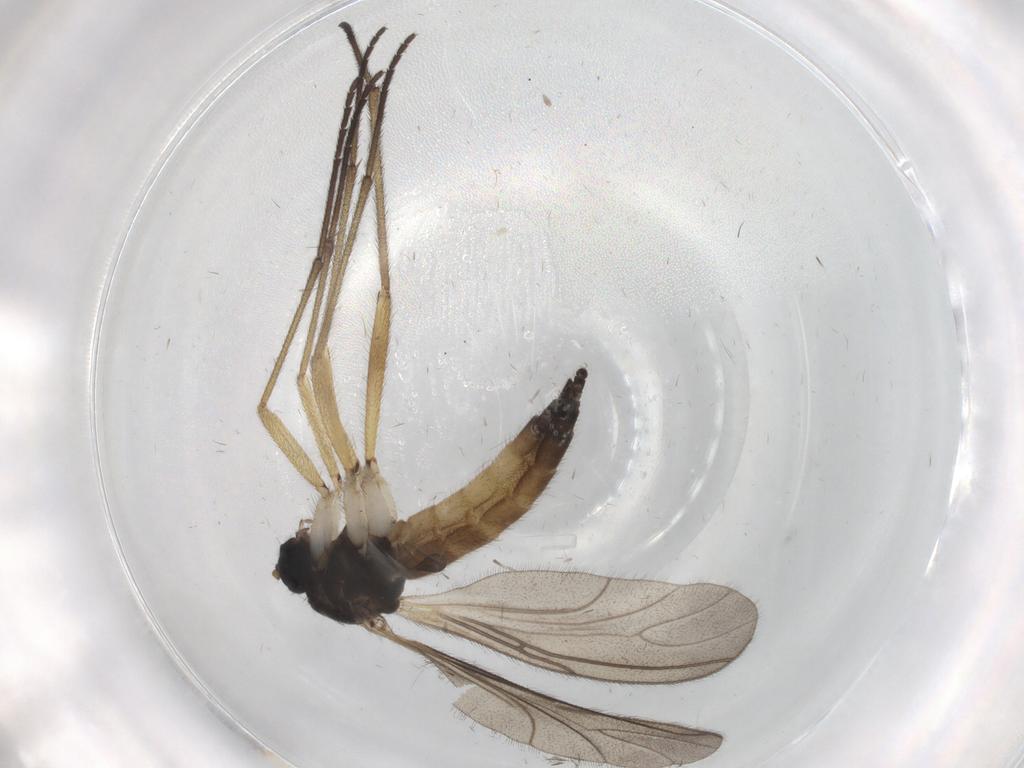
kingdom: Animalia
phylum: Arthropoda
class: Insecta
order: Diptera
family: Sciaridae
